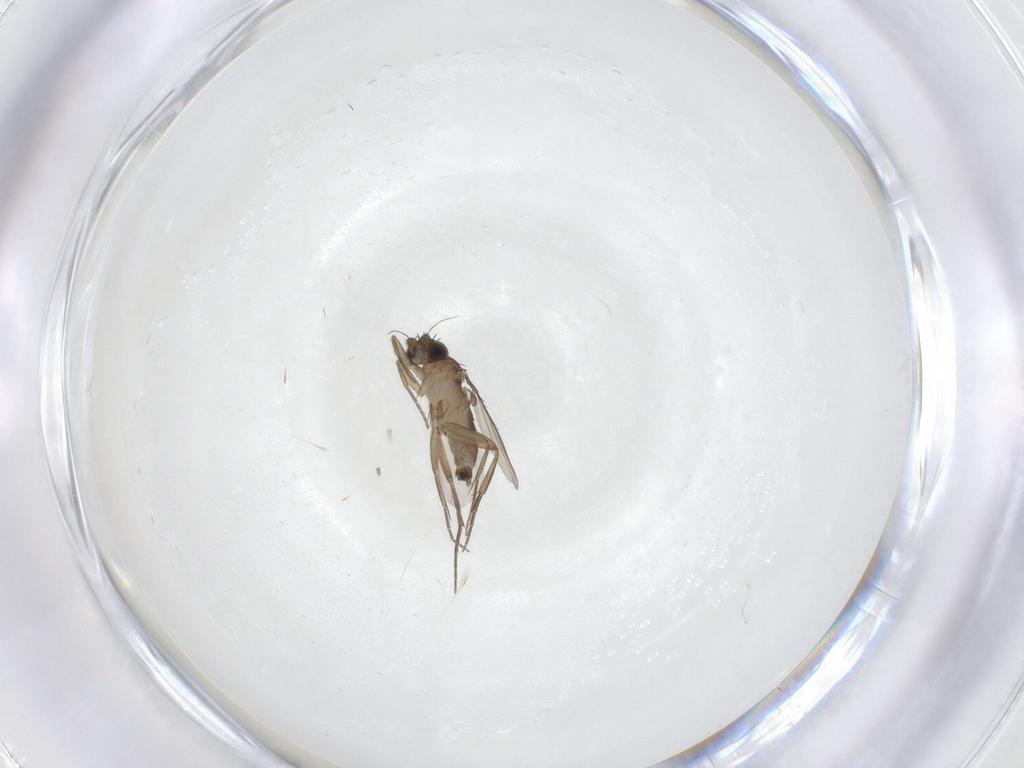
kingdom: Animalia
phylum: Arthropoda
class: Insecta
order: Diptera
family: Phoridae
